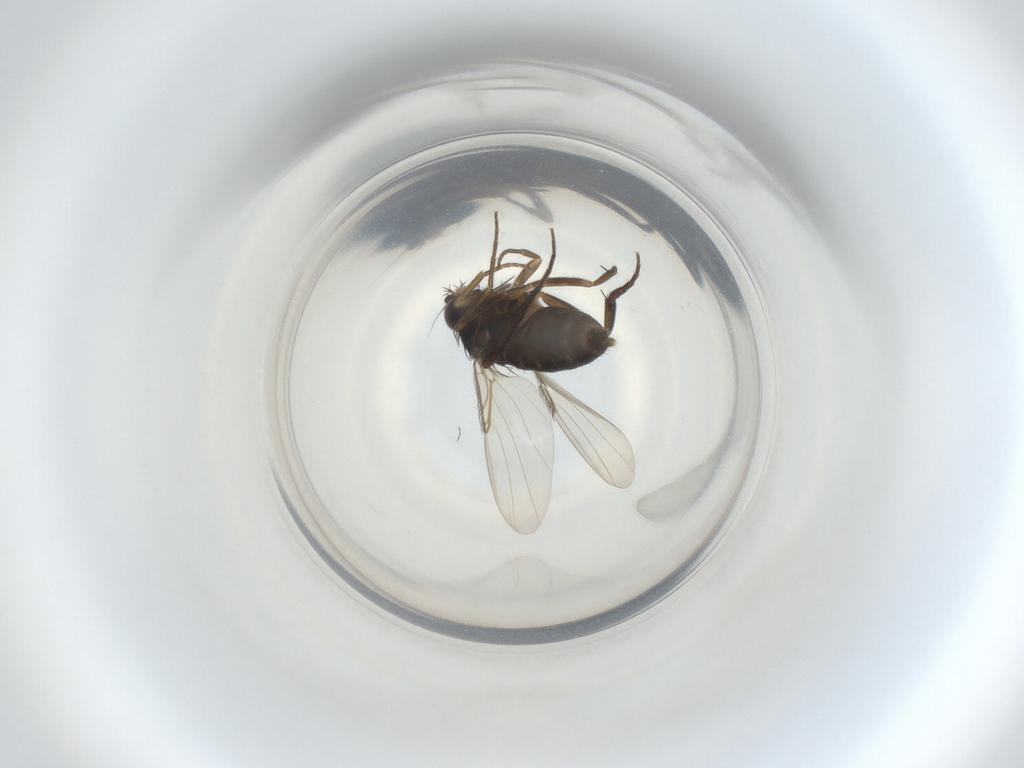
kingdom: Animalia
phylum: Arthropoda
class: Insecta
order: Diptera
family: Phoridae
